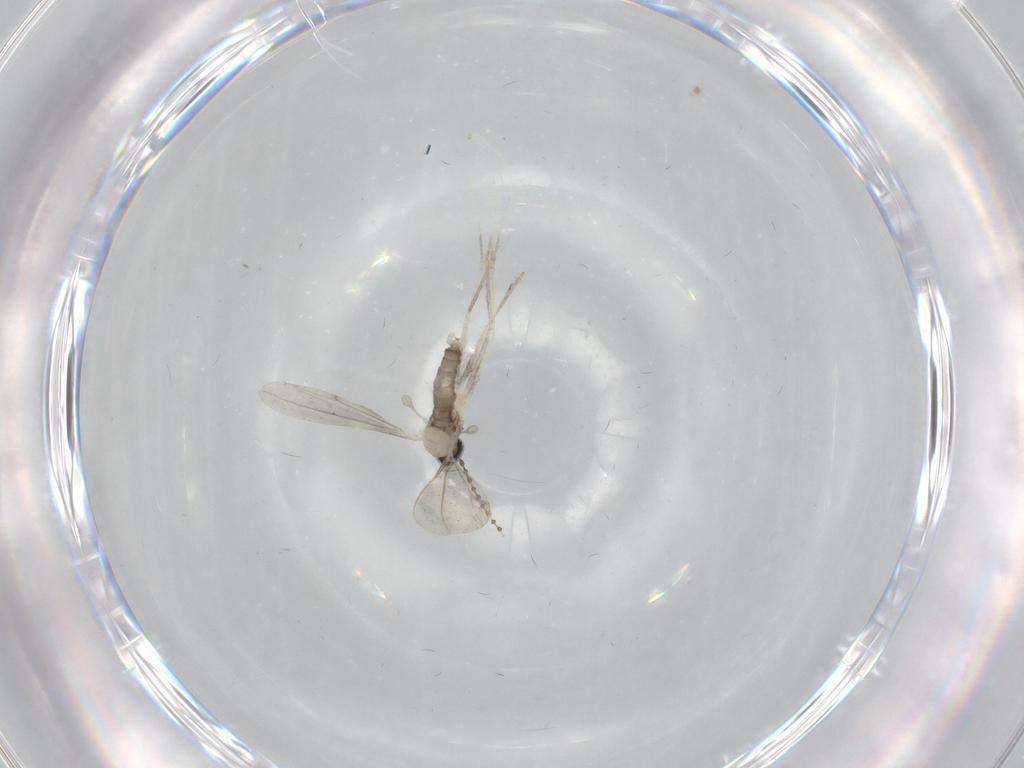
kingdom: Animalia
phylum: Arthropoda
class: Insecta
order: Diptera
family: Cecidomyiidae
